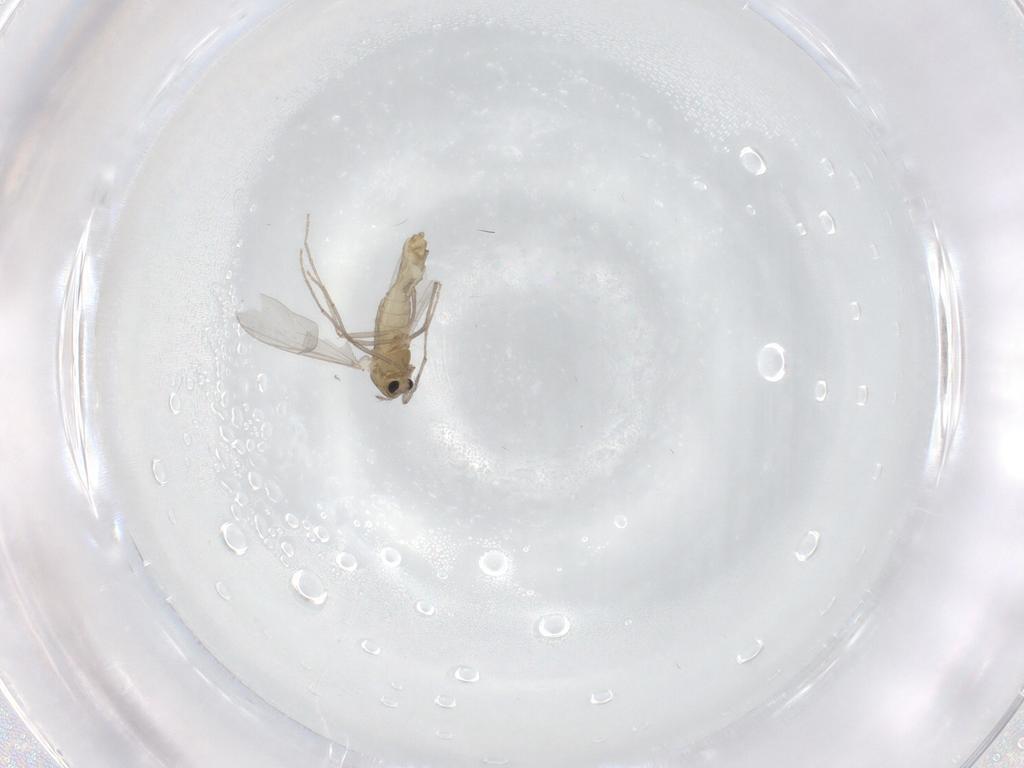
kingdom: Animalia
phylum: Arthropoda
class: Insecta
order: Diptera
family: Chironomidae
